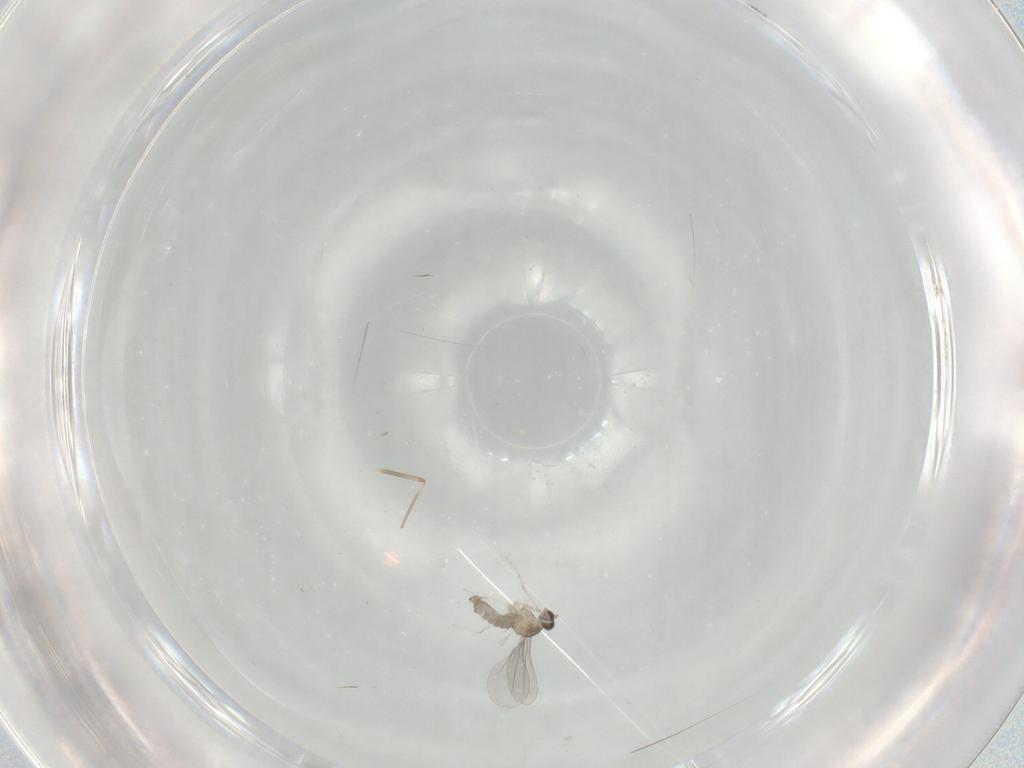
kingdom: Animalia
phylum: Arthropoda
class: Insecta
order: Diptera
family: Cecidomyiidae
